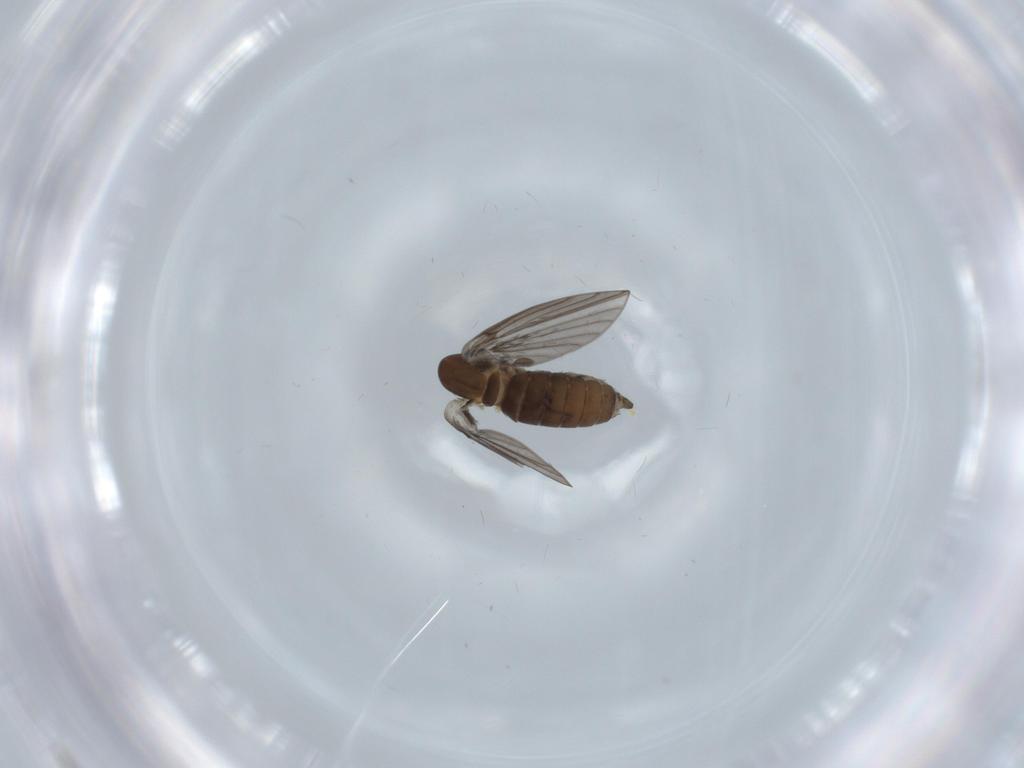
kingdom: Animalia
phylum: Arthropoda
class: Insecta
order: Diptera
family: Psychodidae
